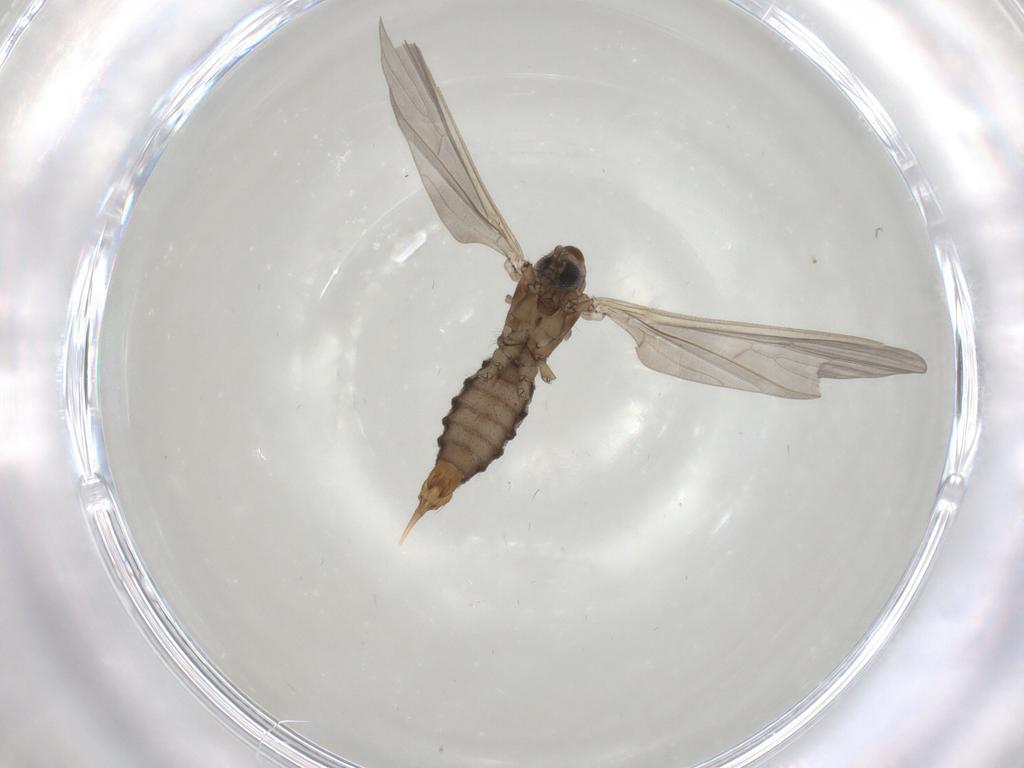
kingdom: Animalia
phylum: Arthropoda
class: Insecta
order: Diptera
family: Limoniidae
